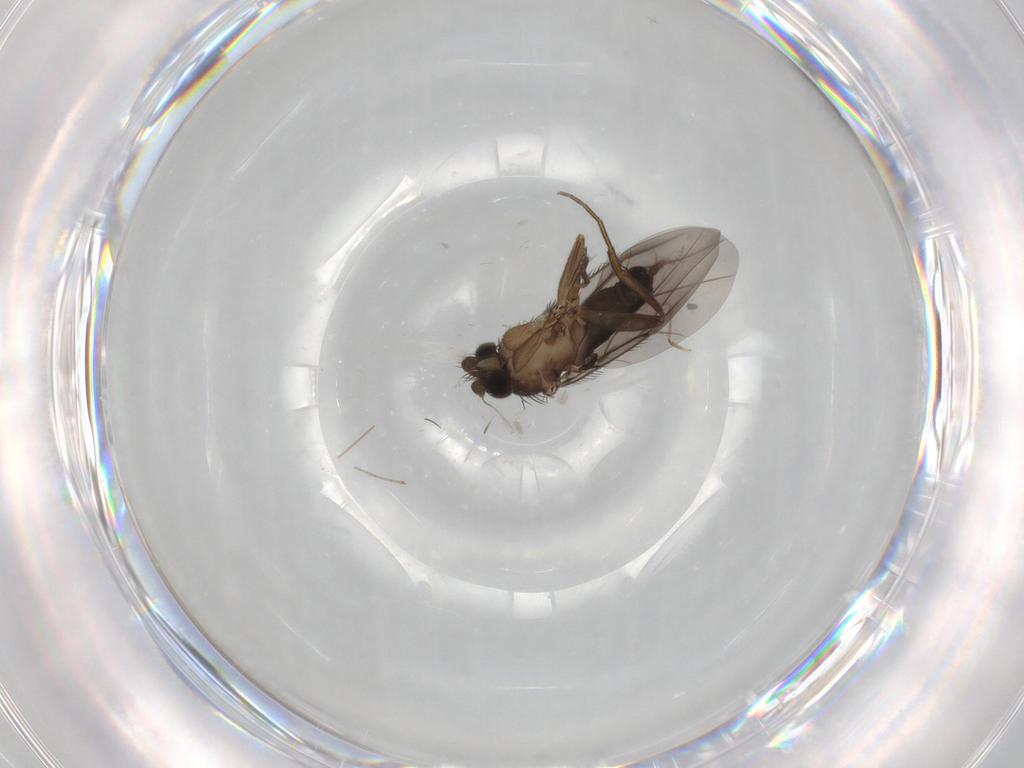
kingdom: Animalia
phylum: Arthropoda
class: Insecta
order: Diptera
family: Cecidomyiidae
